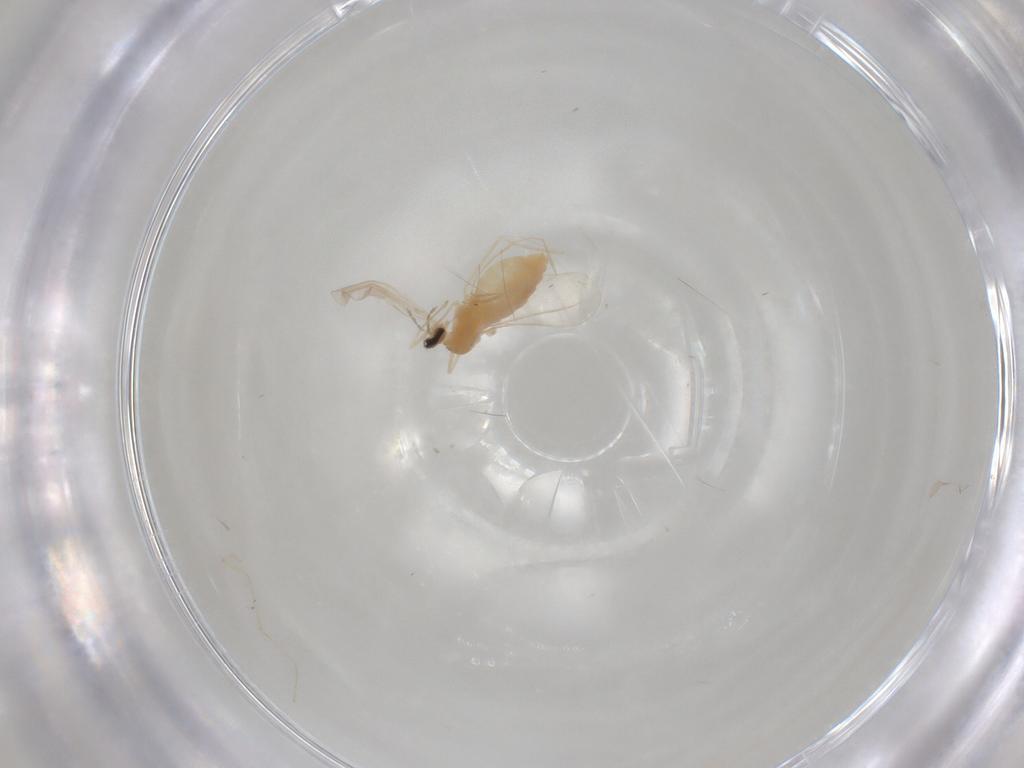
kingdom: Animalia
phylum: Arthropoda
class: Insecta
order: Diptera
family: Cecidomyiidae
